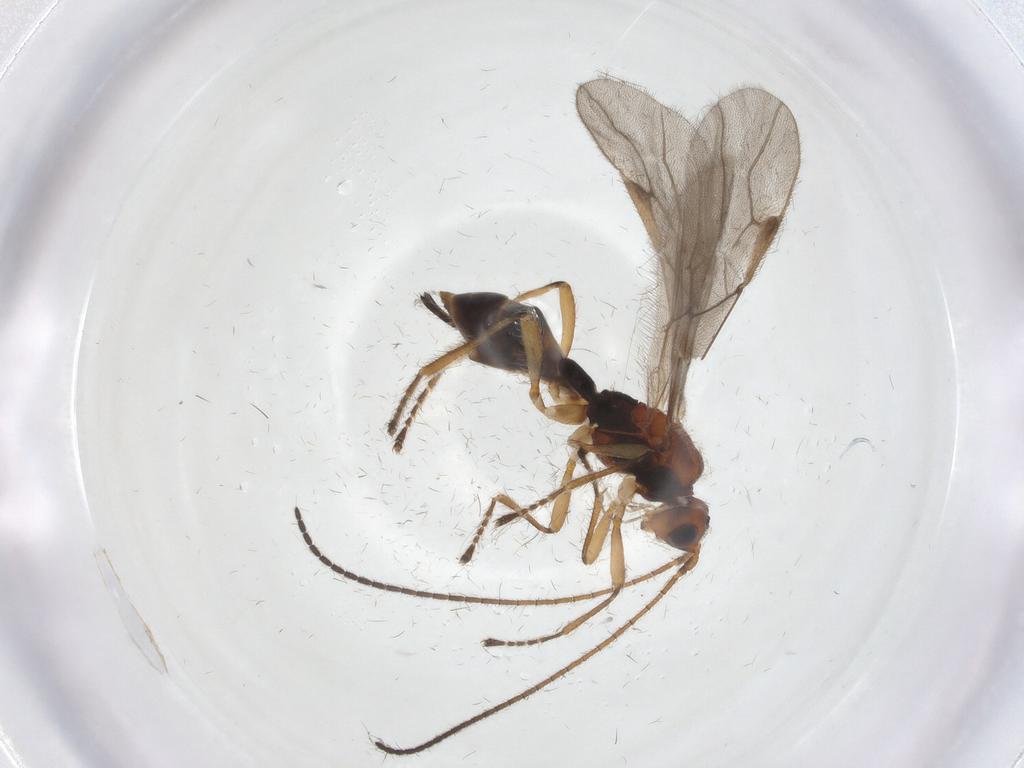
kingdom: Animalia
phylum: Arthropoda
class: Insecta
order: Hymenoptera
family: Braconidae
